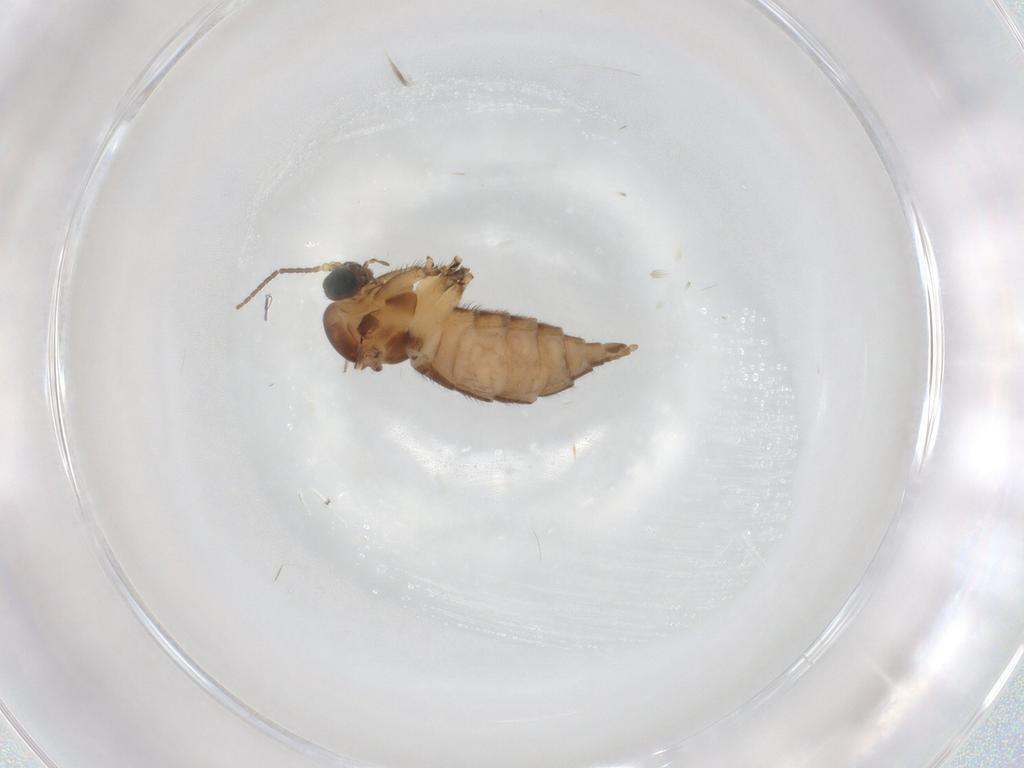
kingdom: Animalia
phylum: Arthropoda
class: Insecta
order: Diptera
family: Sciaridae
